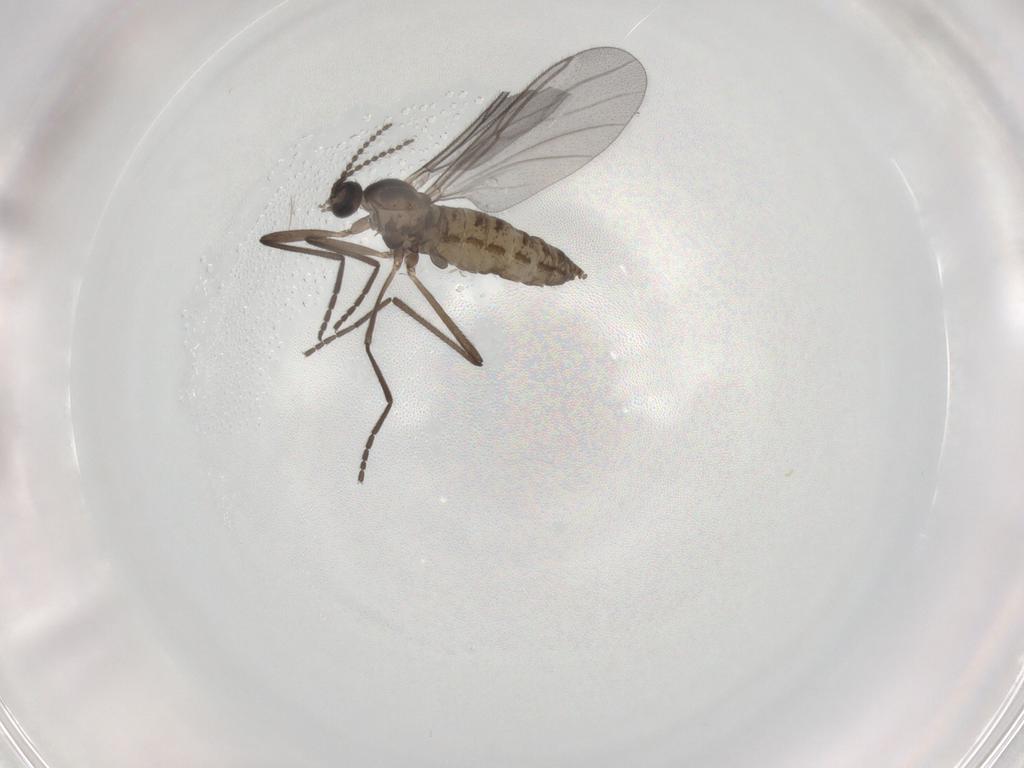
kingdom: Animalia
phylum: Arthropoda
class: Insecta
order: Diptera
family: Cecidomyiidae
